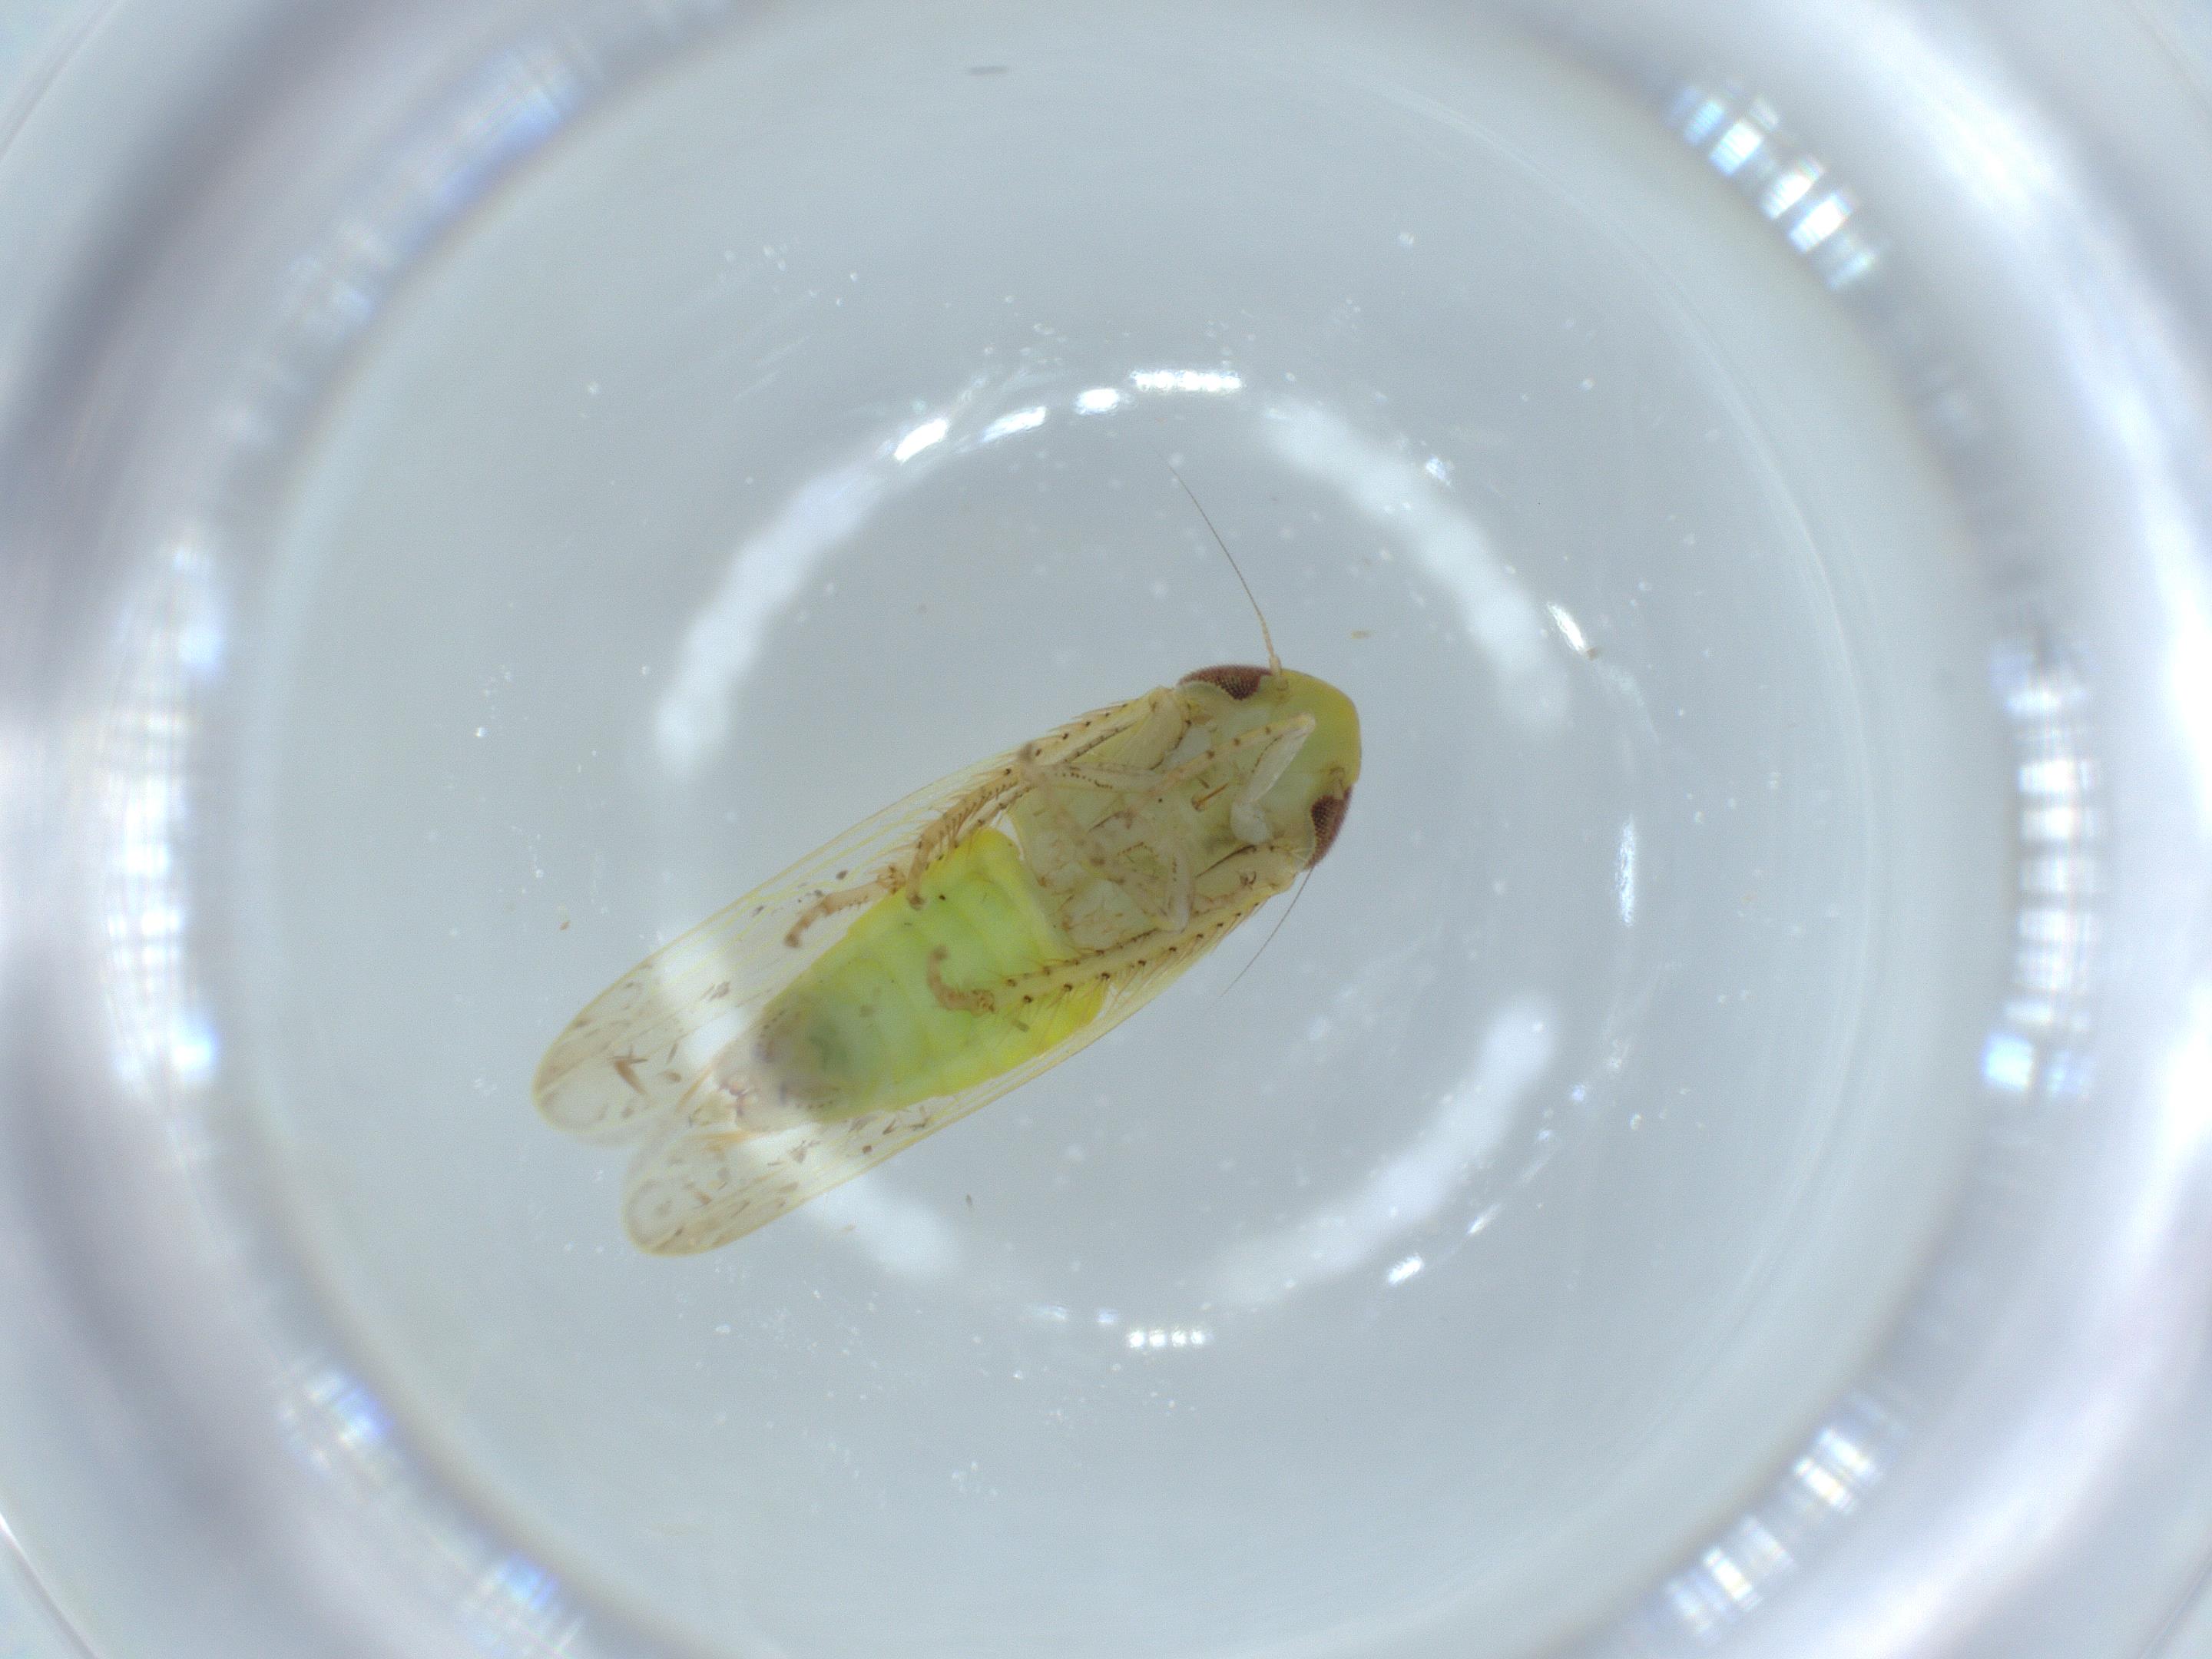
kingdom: Animalia
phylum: Arthropoda
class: Insecta
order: Hemiptera
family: Cicadellidae
